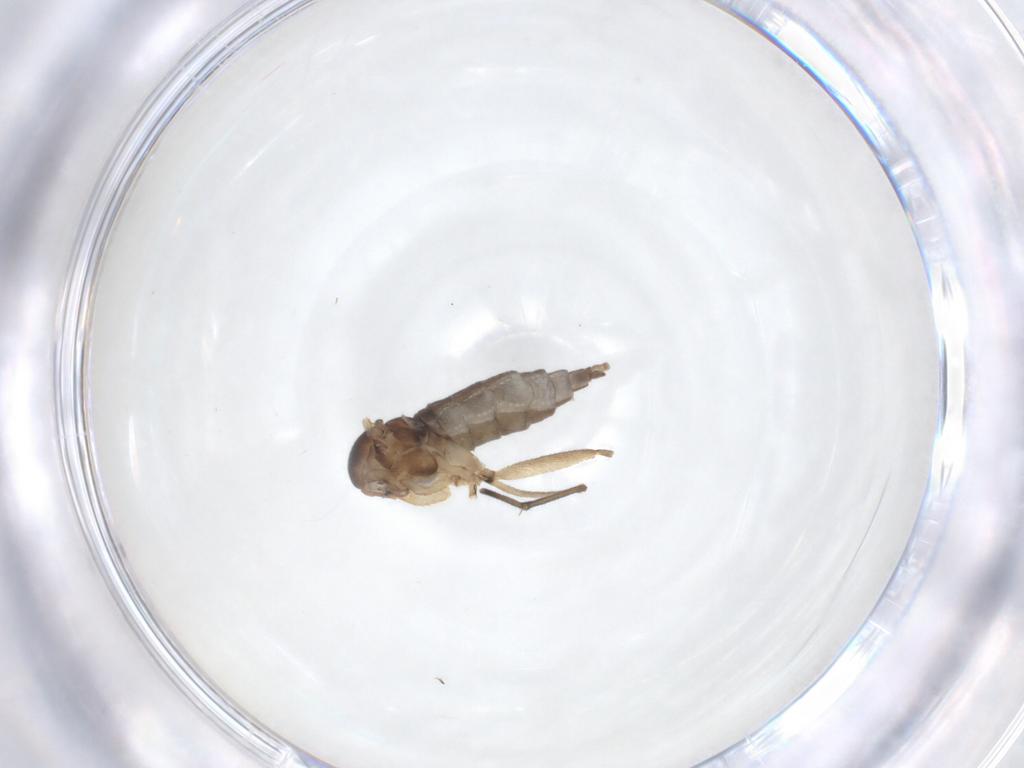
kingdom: Animalia
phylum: Arthropoda
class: Insecta
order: Diptera
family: Sciaridae
